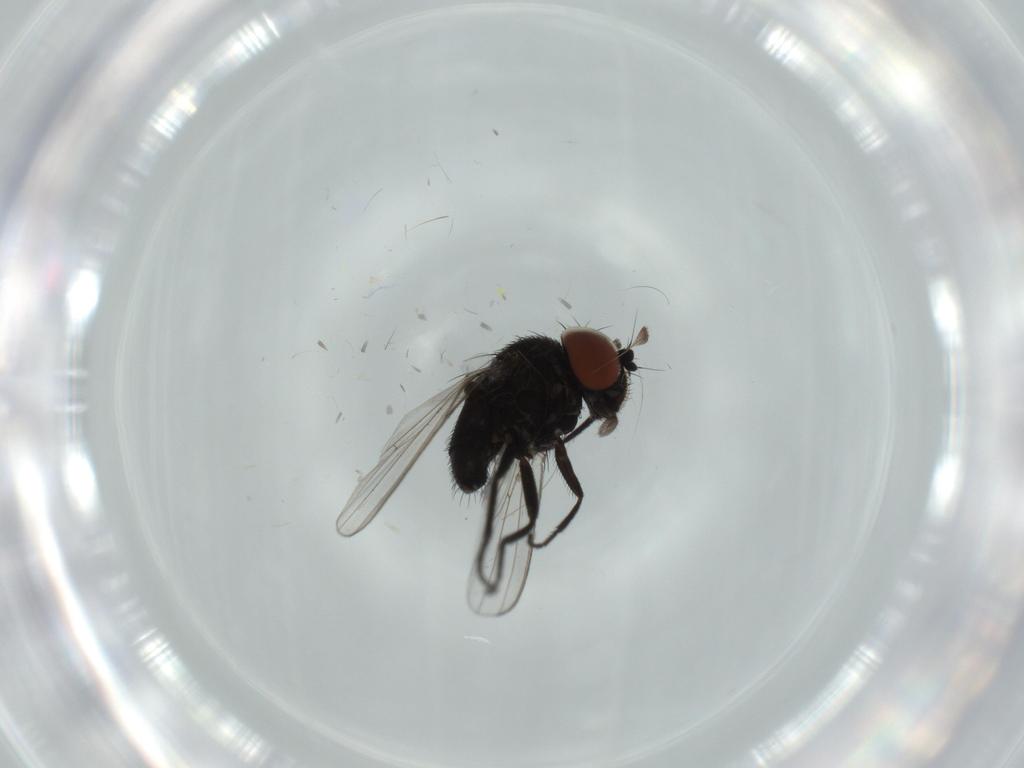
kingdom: Animalia
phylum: Arthropoda
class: Insecta
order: Diptera
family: Milichiidae
